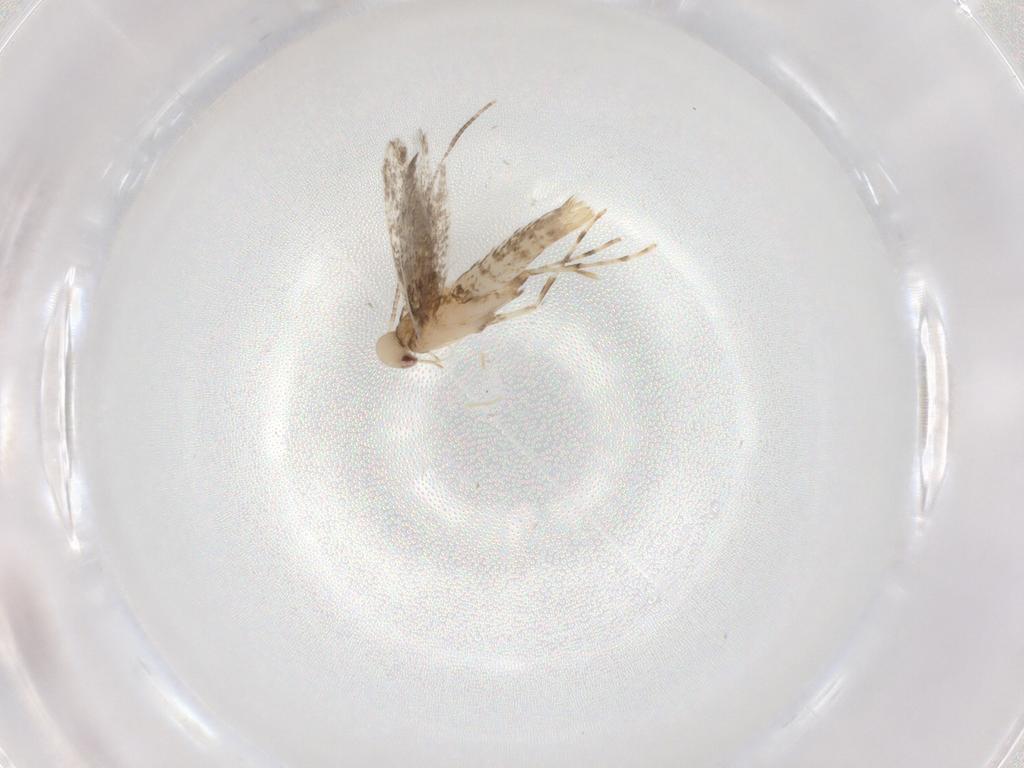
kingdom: Animalia
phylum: Arthropoda
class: Insecta
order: Lepidoptera
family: Gracillariidae
